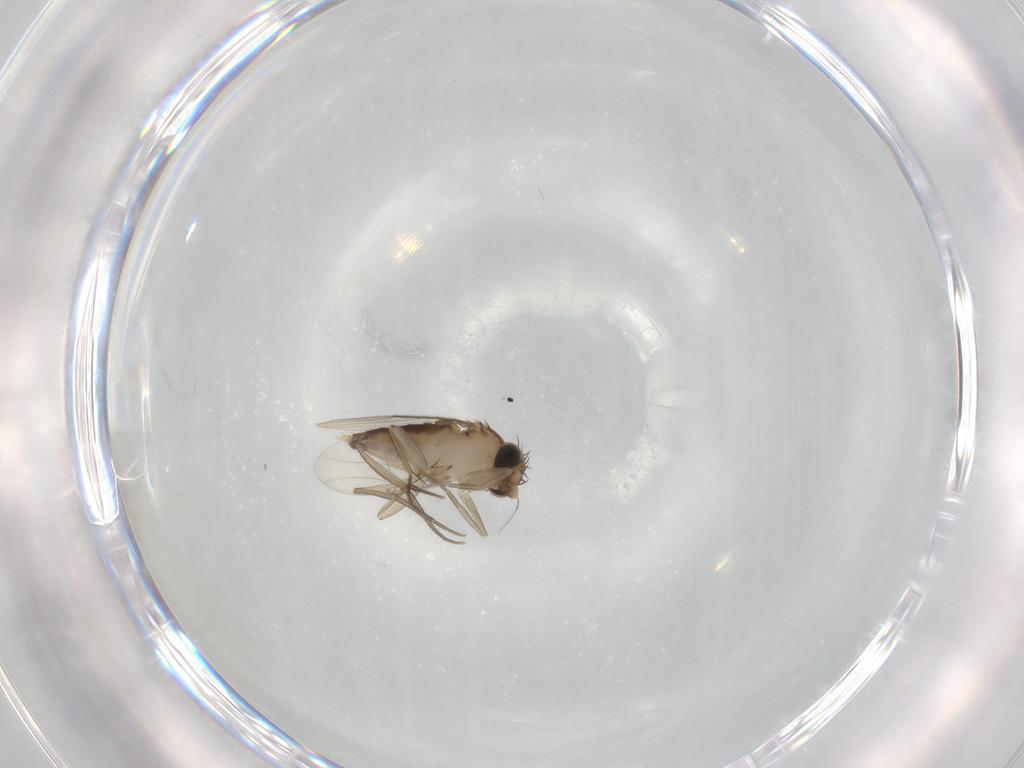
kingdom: Animalia
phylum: Arthropoda
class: Insecta
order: Diptera
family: Phoridae
